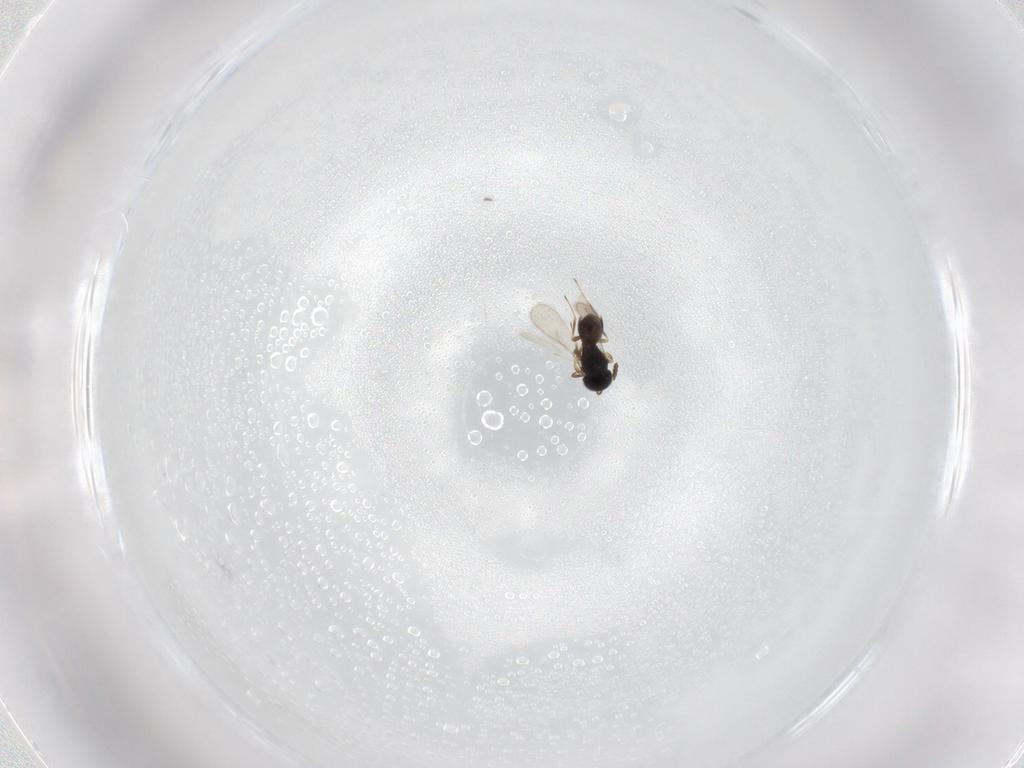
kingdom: Animalia
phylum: Arthropoda
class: Insecta
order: Hymenoptera
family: Scelionidae
